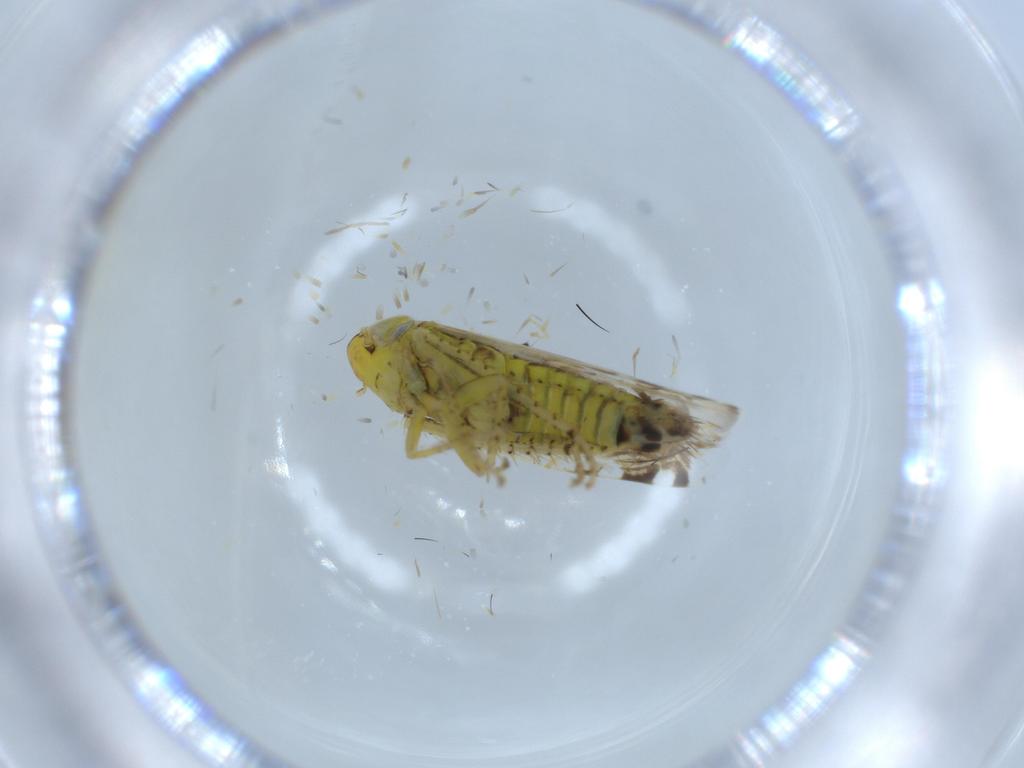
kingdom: Animalia
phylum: Arthropoda
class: Insecta
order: Hemiptera
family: Cicadellidae
